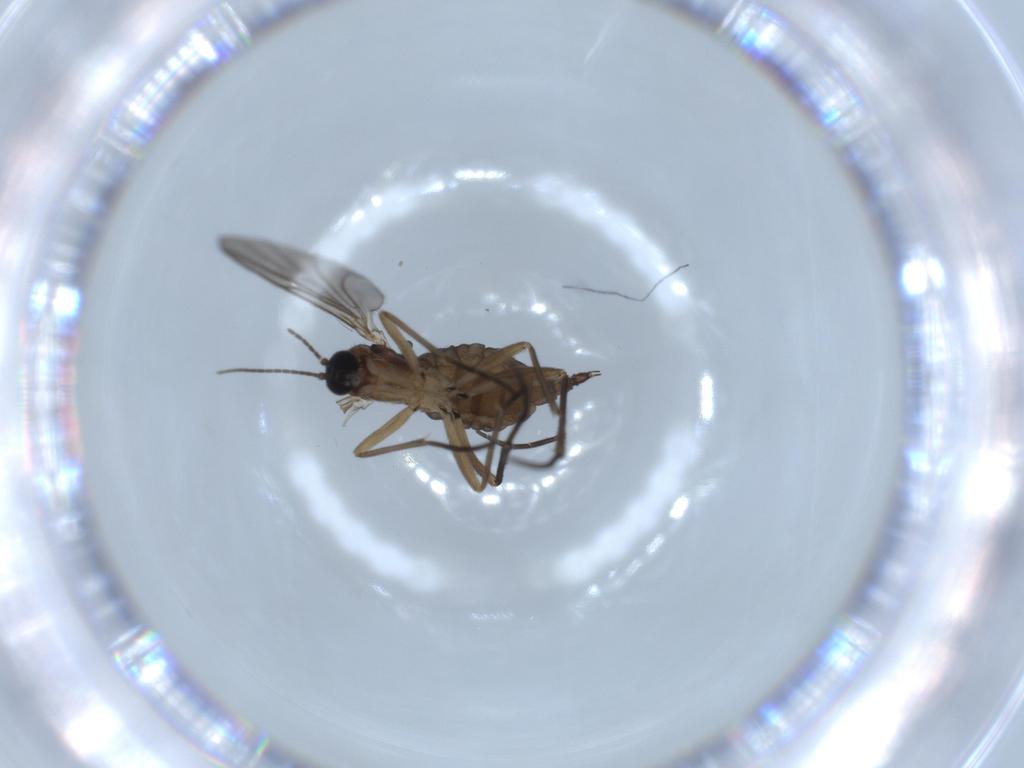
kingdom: Animalia
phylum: Arthropoda
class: Insecta
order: Diptera
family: Sciaridae
